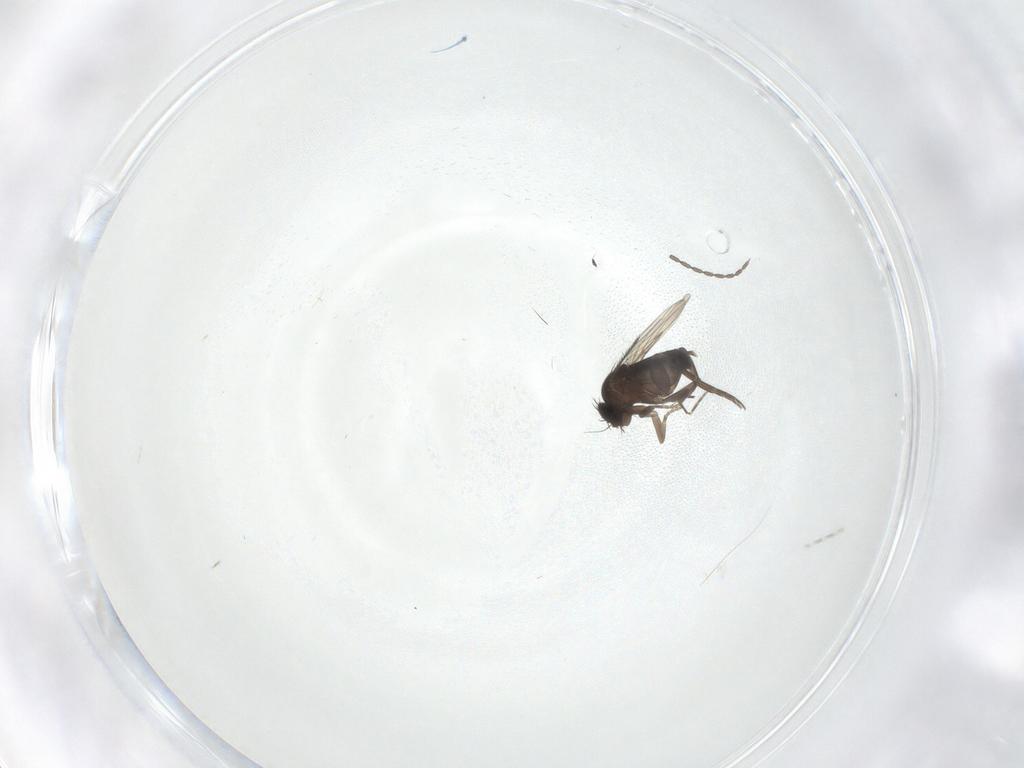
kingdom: Animalia
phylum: Arthropoda
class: Insecta
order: Diptera
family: Phoridae
